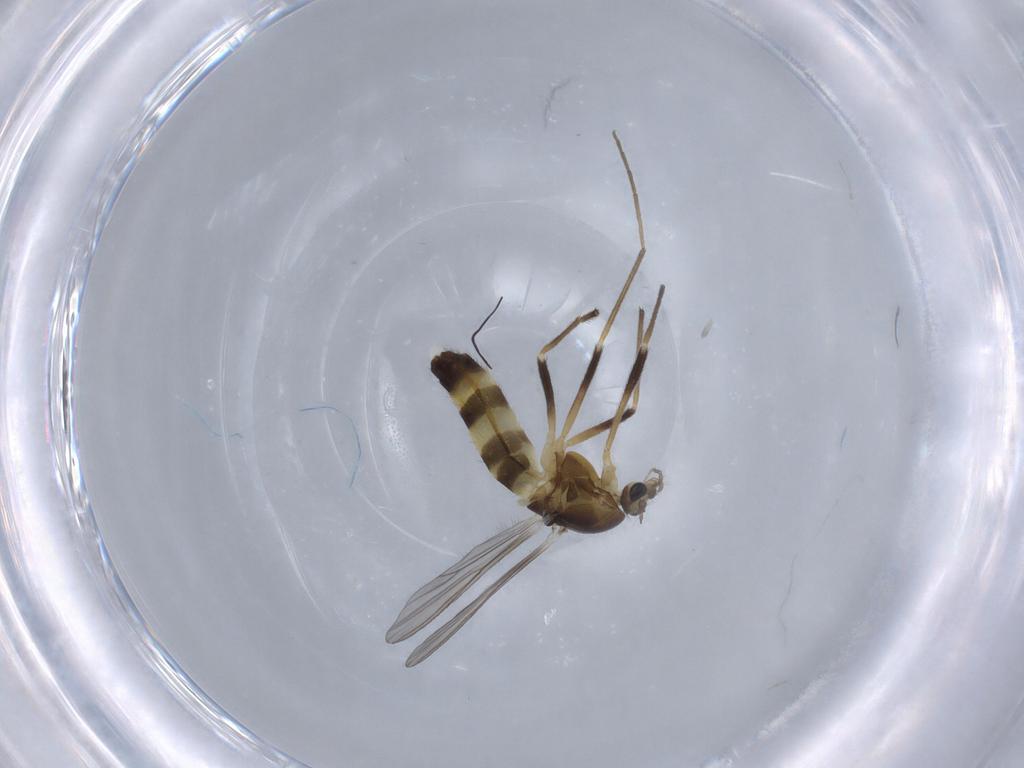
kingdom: Animalia
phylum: Arthropoda
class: Insecta
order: Diptera
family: Chironomidae
